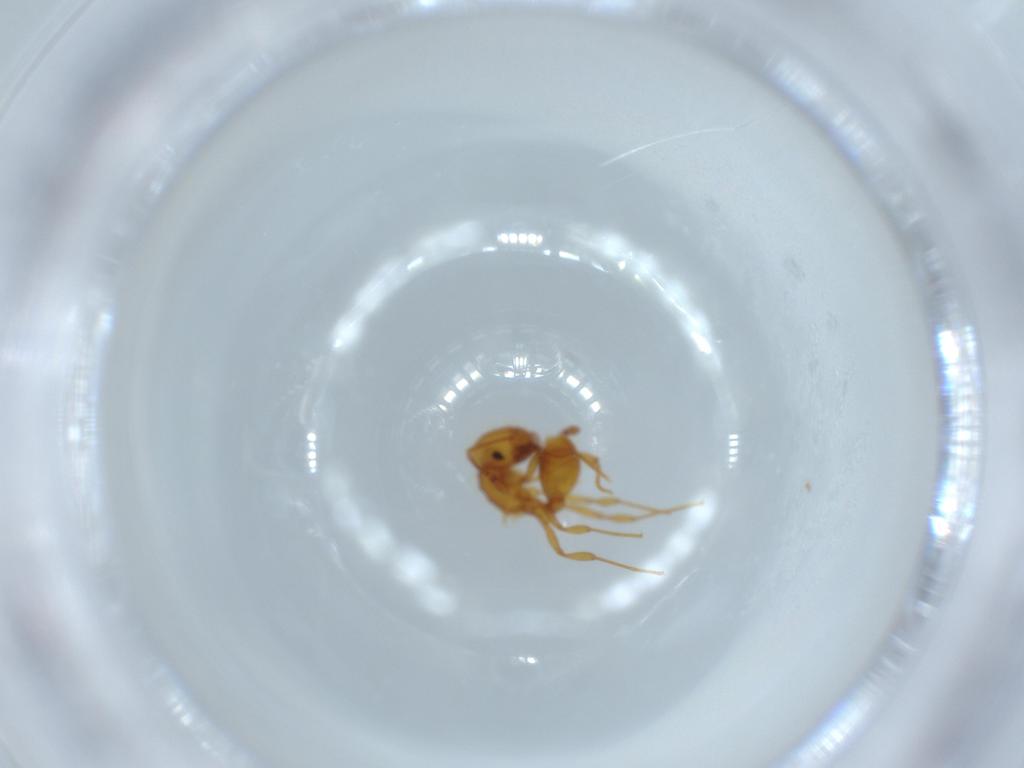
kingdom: Animalia
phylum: Arthropoda
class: Insecta
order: Hymenoptera
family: Formicidae
